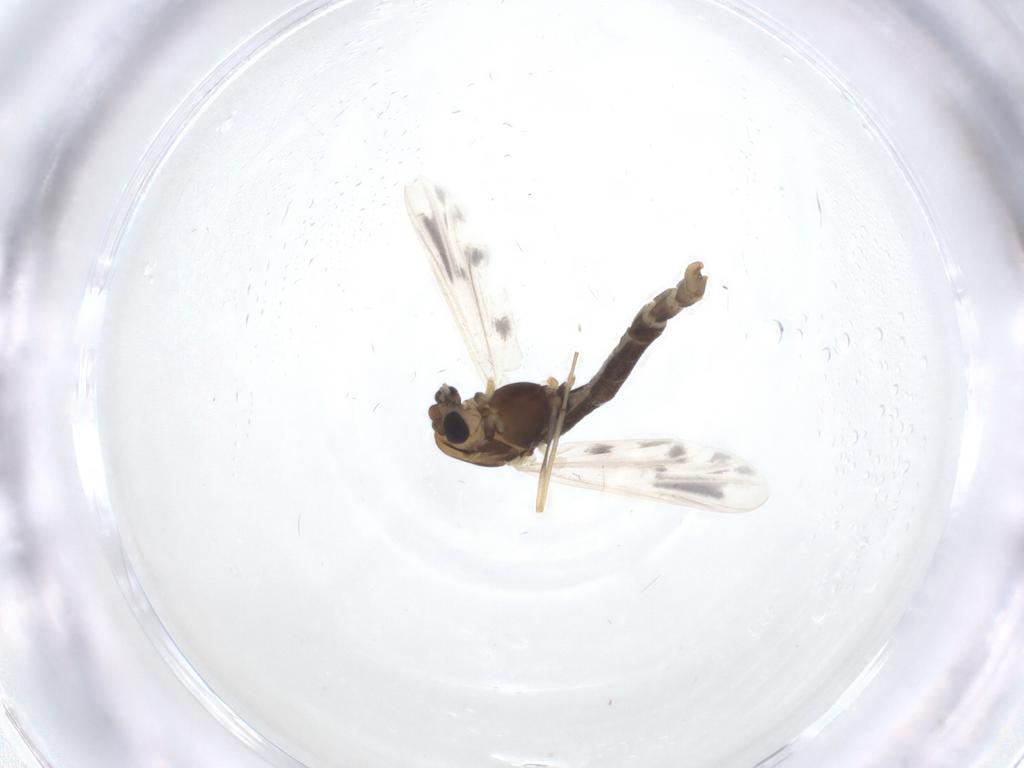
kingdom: Animalia
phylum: Arthropoda
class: Insecta
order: Diptera
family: Chironomidae
